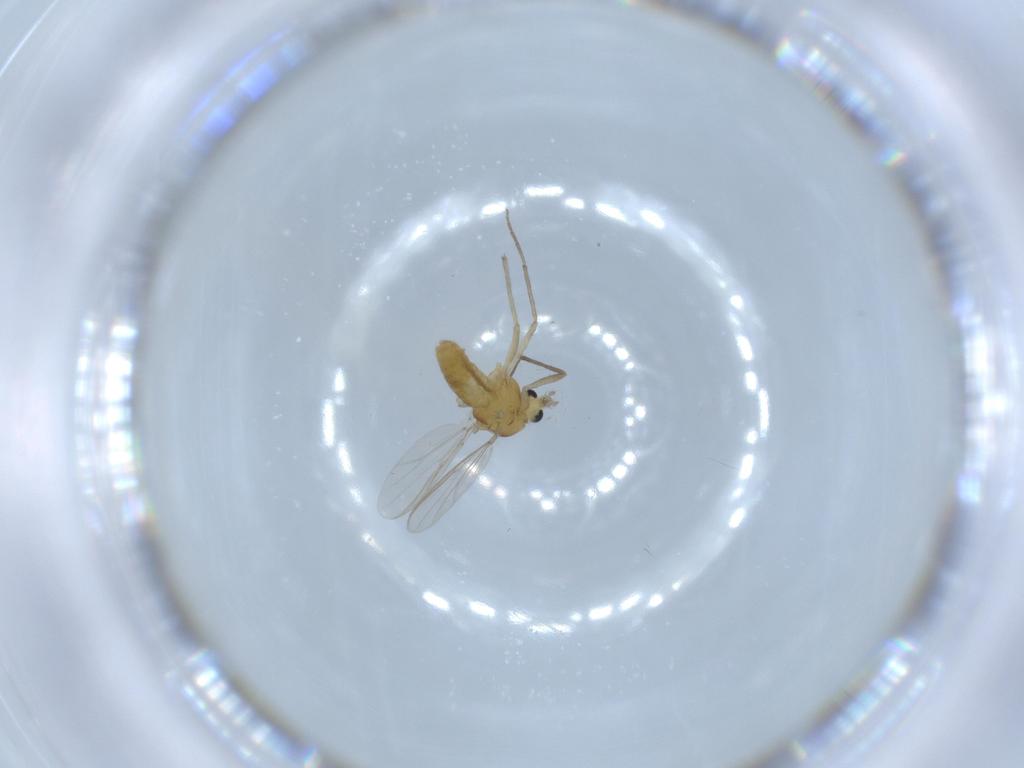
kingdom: Animalia
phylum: Arthropoda
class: Insecta
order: Diptera
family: Chironomidae
